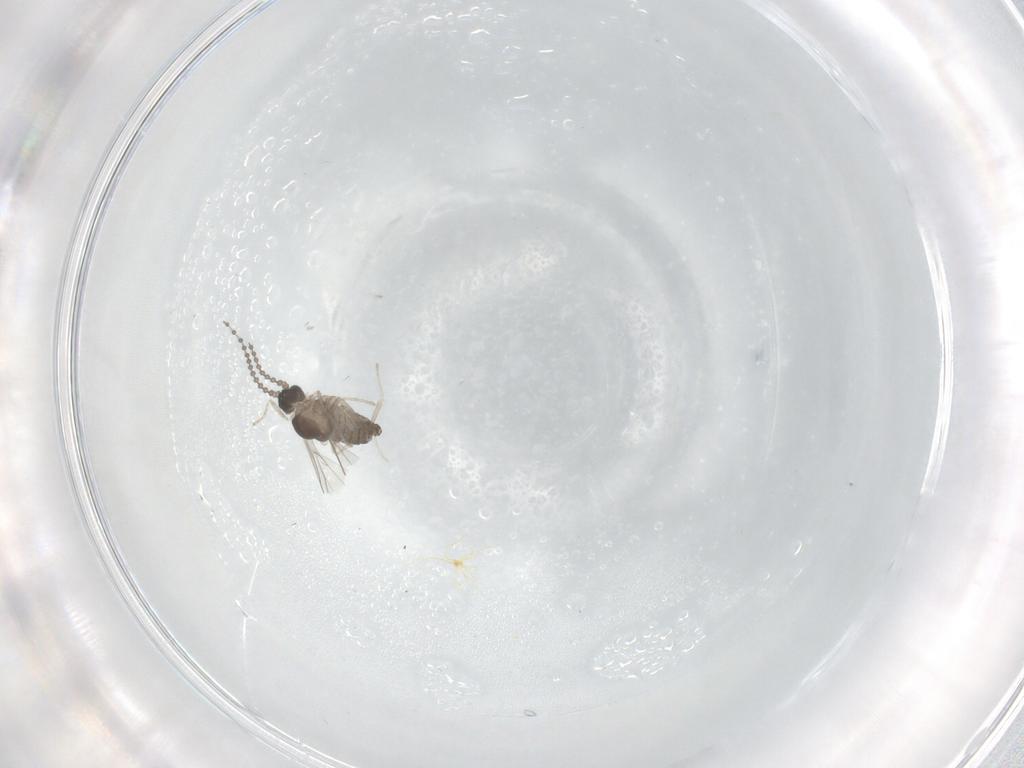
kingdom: Animalia
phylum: Arthropoda
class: Insecta
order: Diptera
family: Cecidomyiidae
